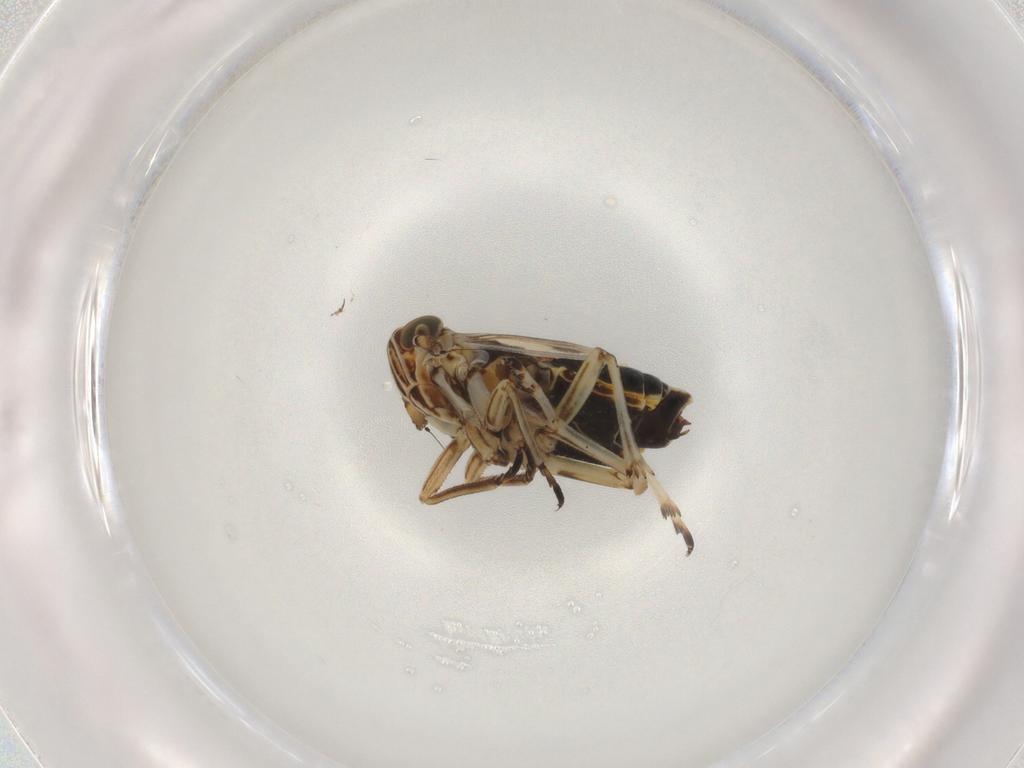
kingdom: Animalia
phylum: Arthropoda
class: Insecta
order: Hemiptera
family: Delphacidae
